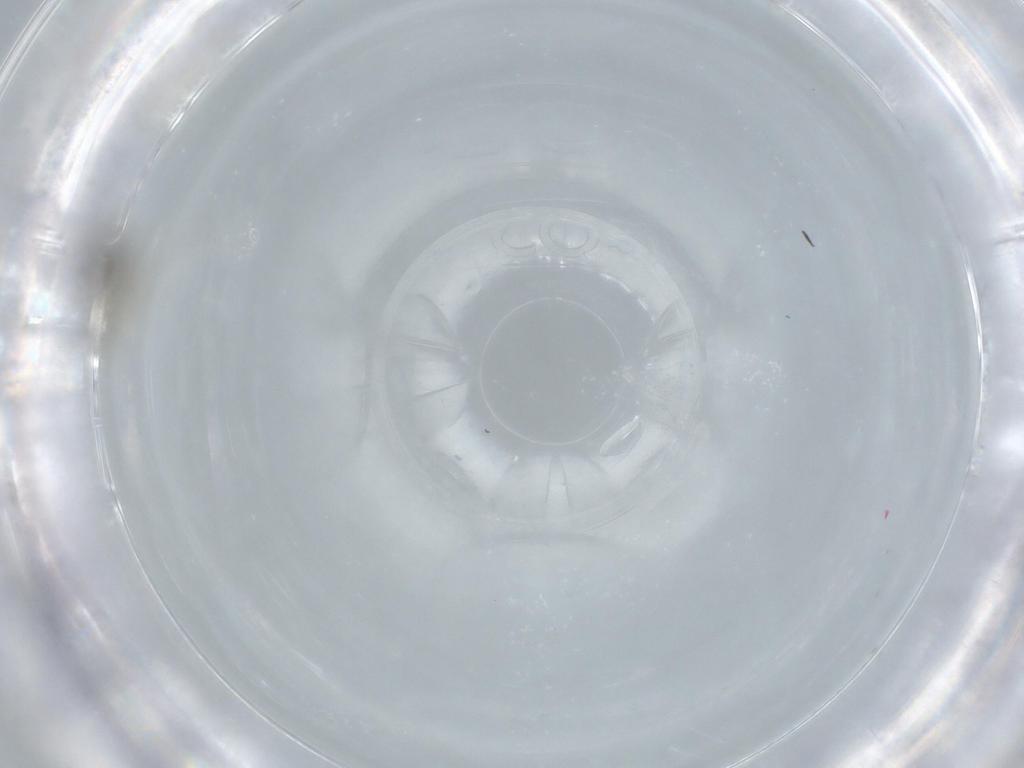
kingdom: Animalia
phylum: Arthropoda
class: Insecta
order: Diptera
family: Cecidomyiidae
